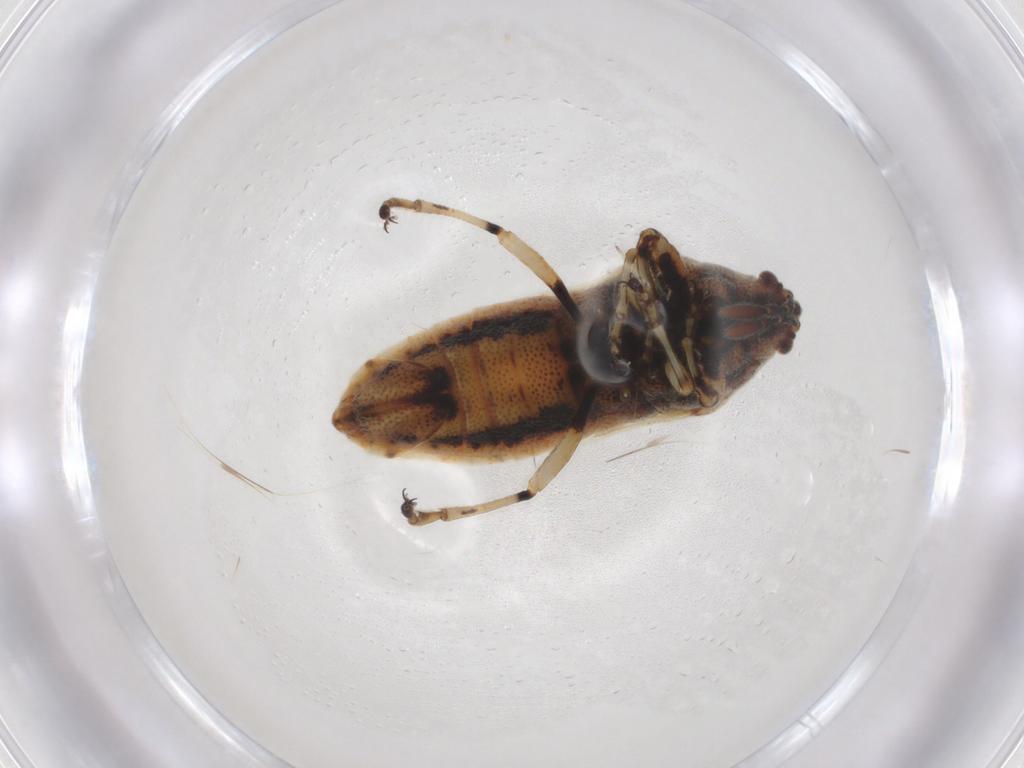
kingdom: Animalia
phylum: Arthropoda
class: Insecta
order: Hemiptera
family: Pachygronthidae
